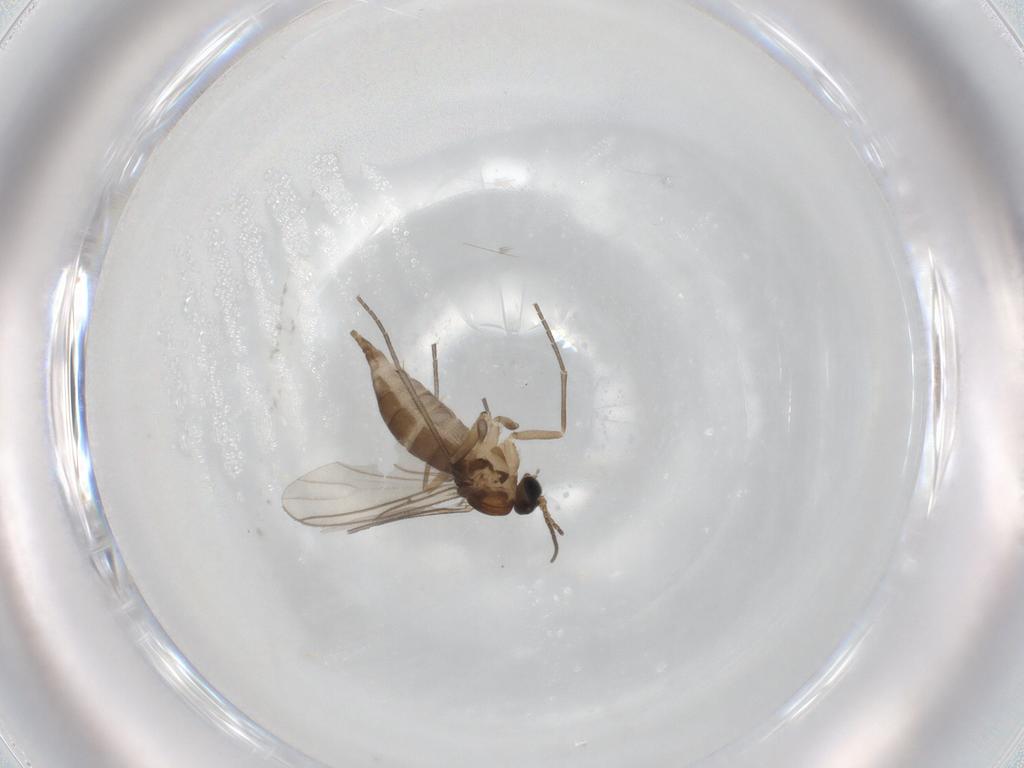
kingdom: Animalia
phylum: Arthropoda
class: Insecta
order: Diptera
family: Sciaridae
